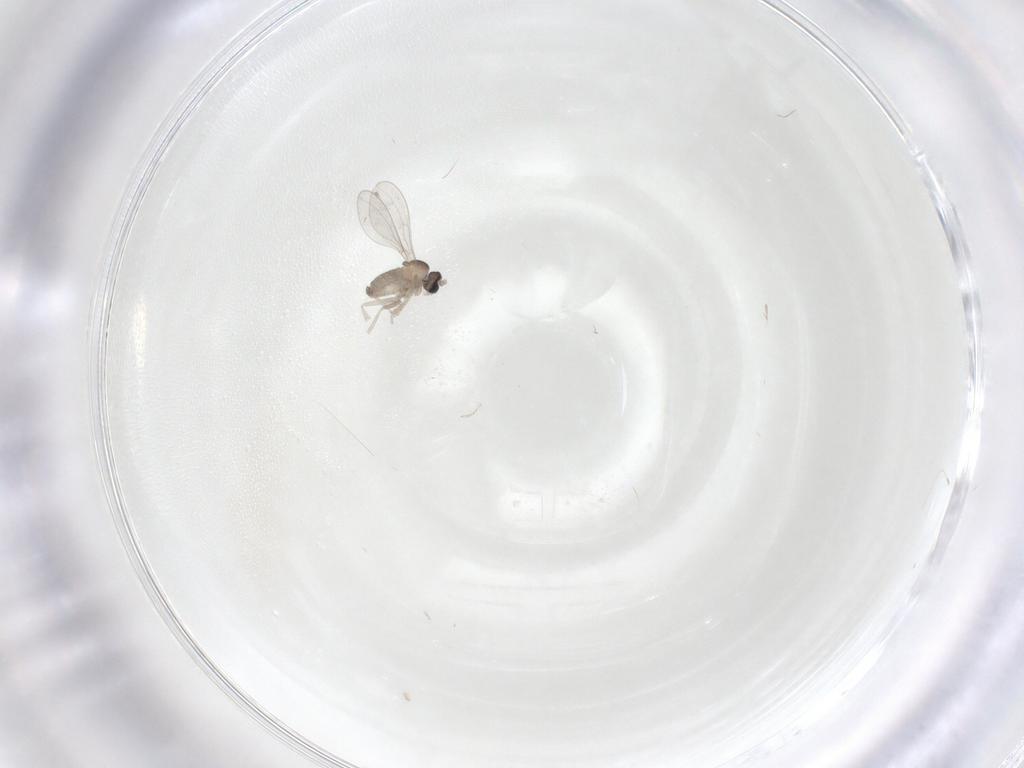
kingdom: Animalia
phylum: Arthropoda
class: Insecta
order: Diptera
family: Cecidomyiidae
